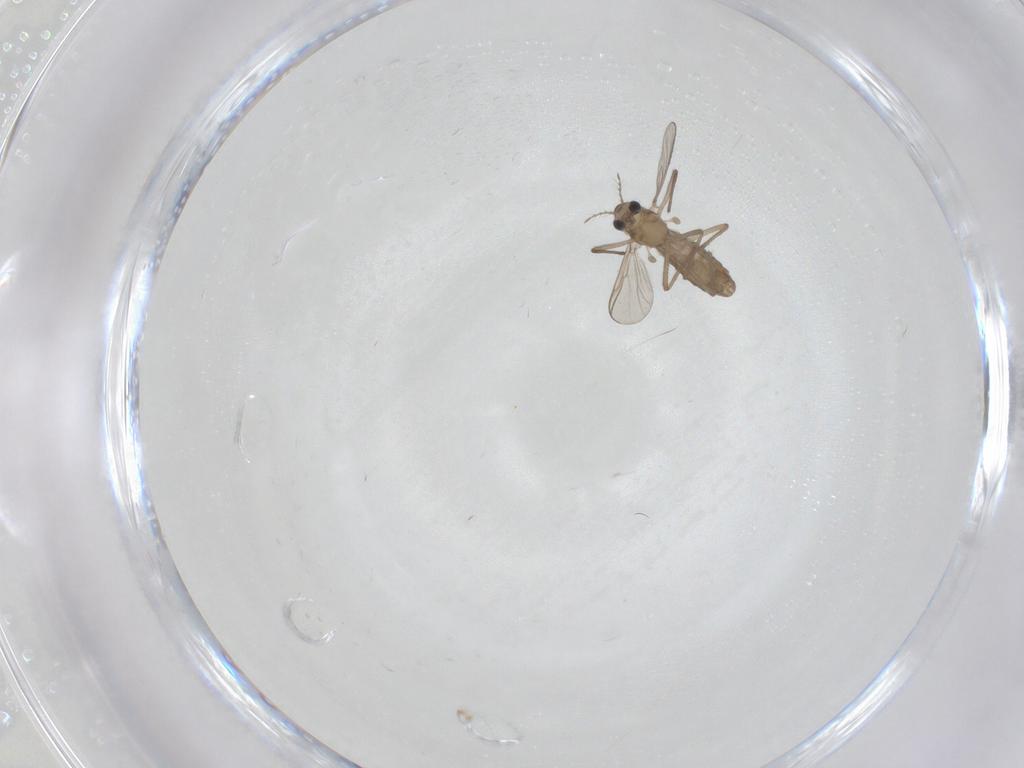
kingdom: Animalia
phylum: Arthropoda
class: Insecta
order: Diptera
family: Chironomidae
